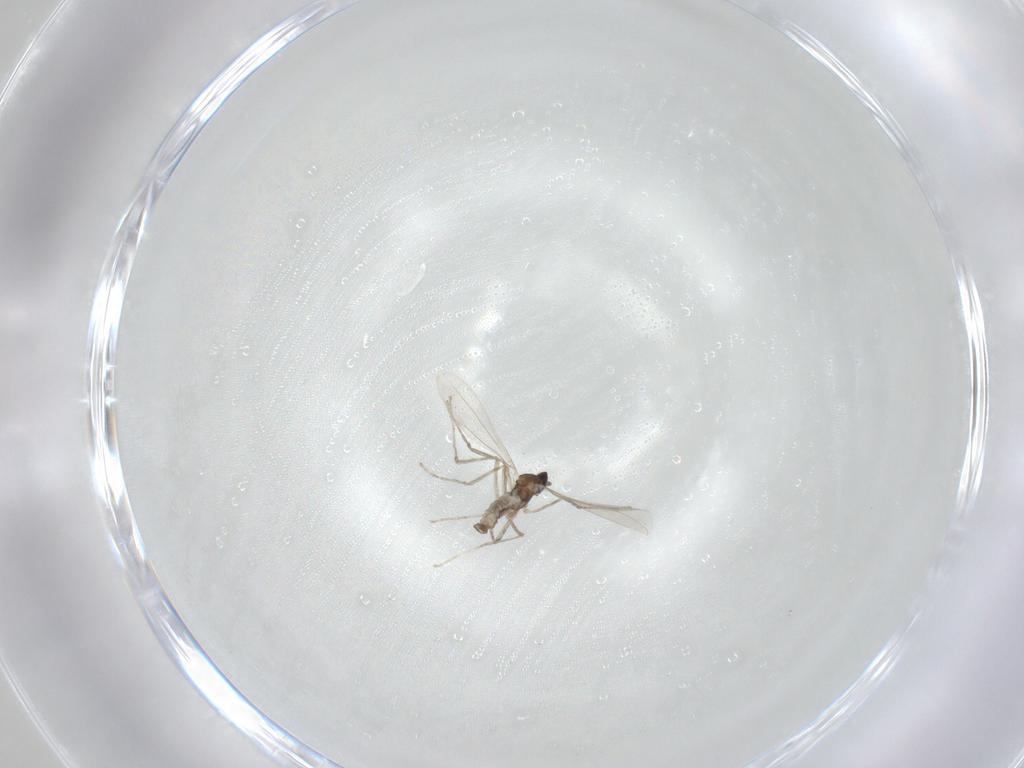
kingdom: Animalia
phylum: Arthropoda
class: Insecta
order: Diptera
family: Cecidomyiidae
